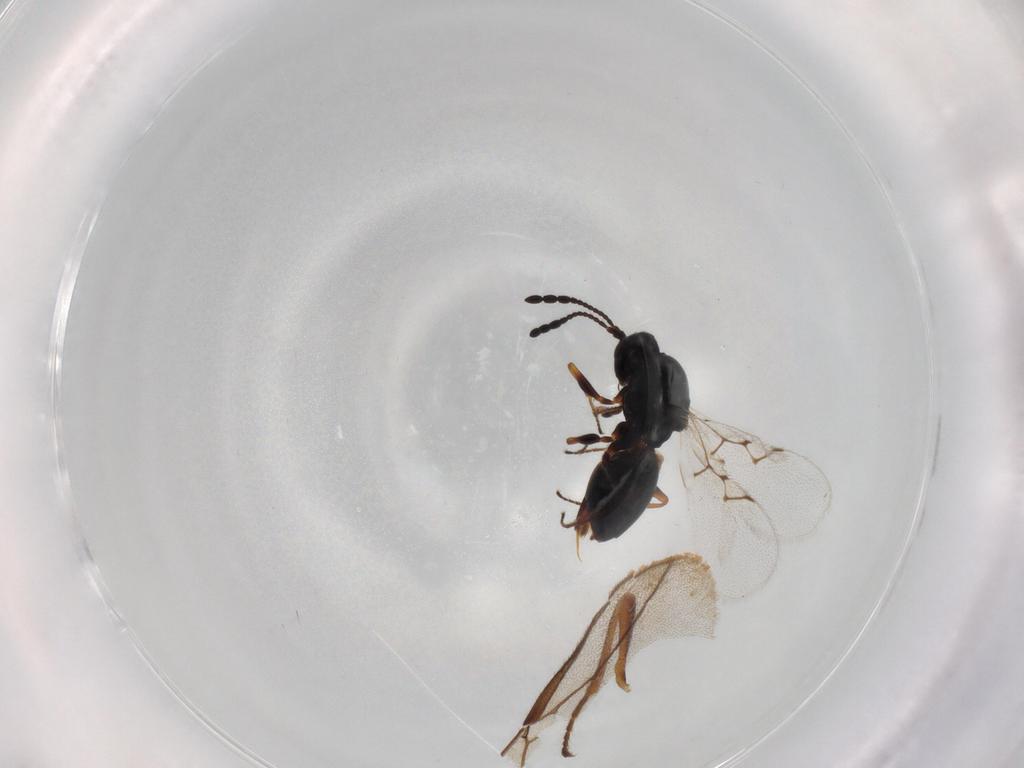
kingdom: Animalia
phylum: Arthropoda
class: Insecta
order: Hymenoptera
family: Figitidae
